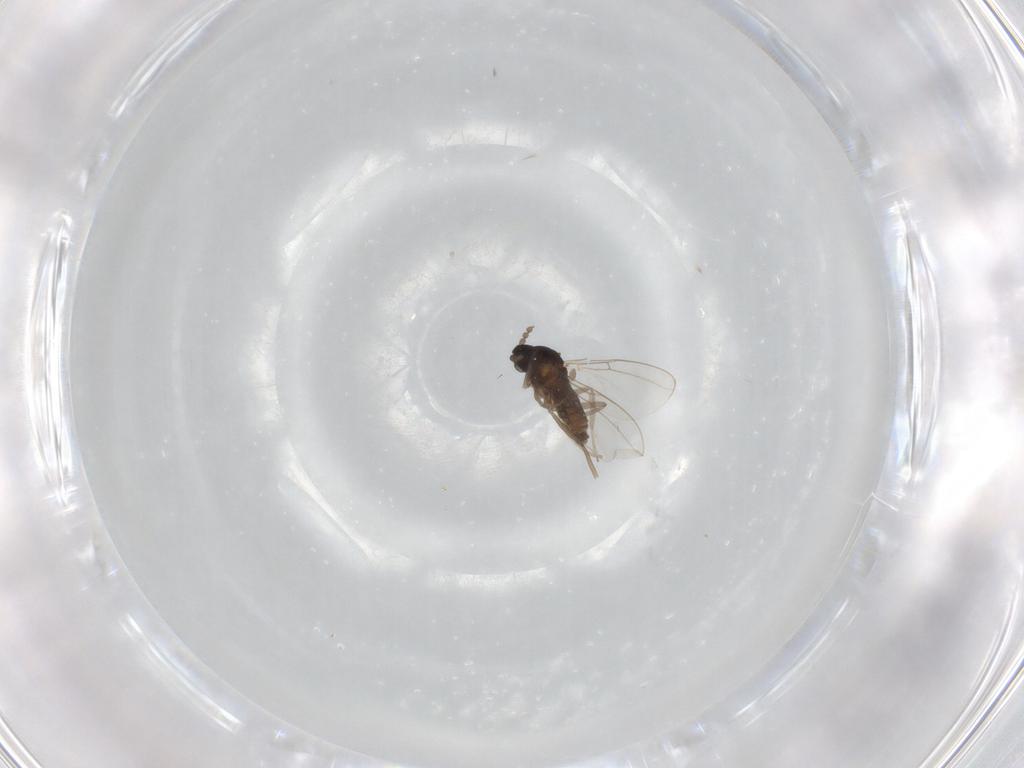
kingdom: Animalia
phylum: Arthropoda
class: Insecta
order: Diptera
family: Cecidomyiidae
